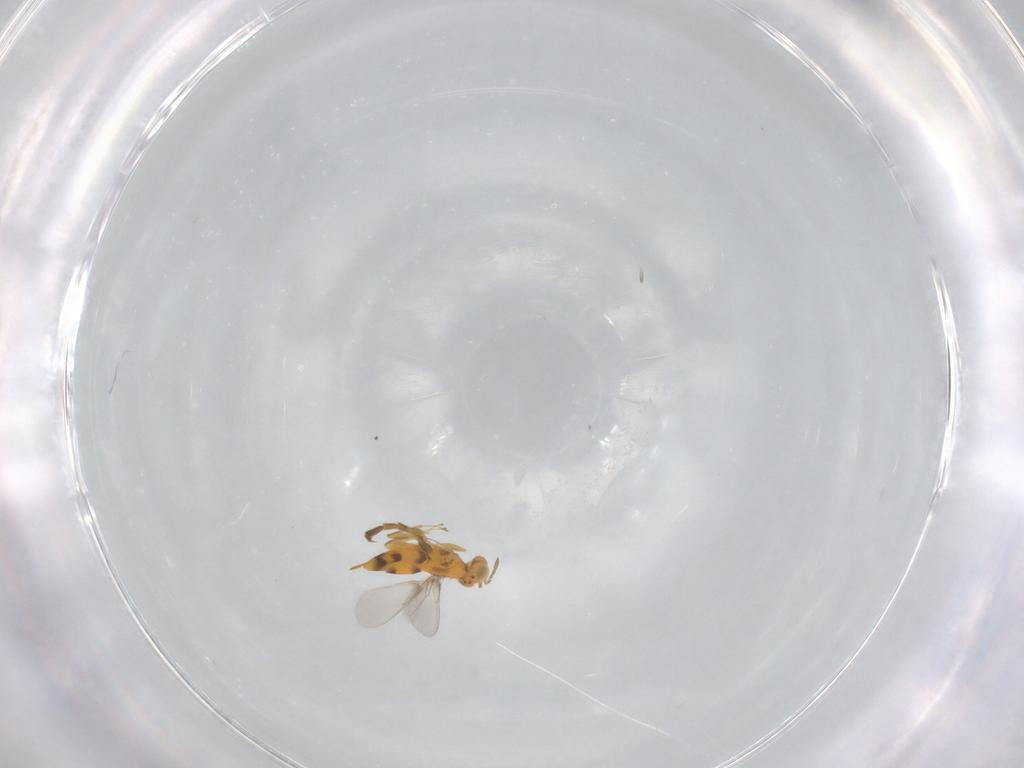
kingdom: Animalia
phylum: Arthropoda
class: Insecta
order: Hymenoptera
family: Aphelinidae
